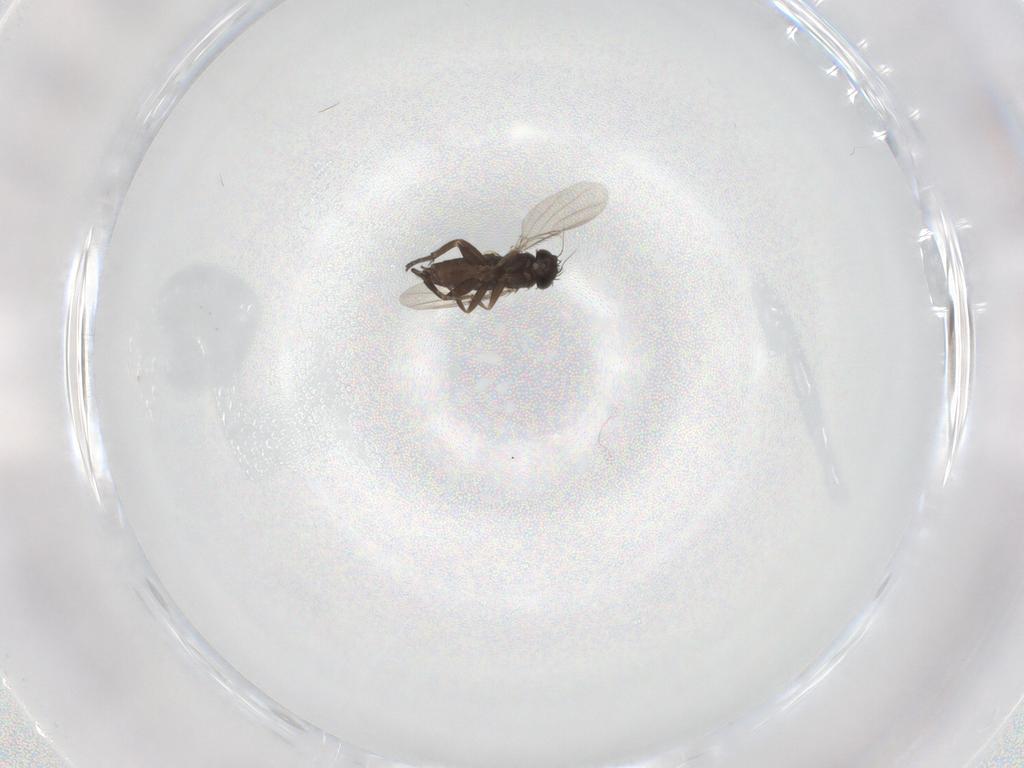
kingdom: Animalia
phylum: Arthropoda
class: Insecta
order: Diptera
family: Phoridae
